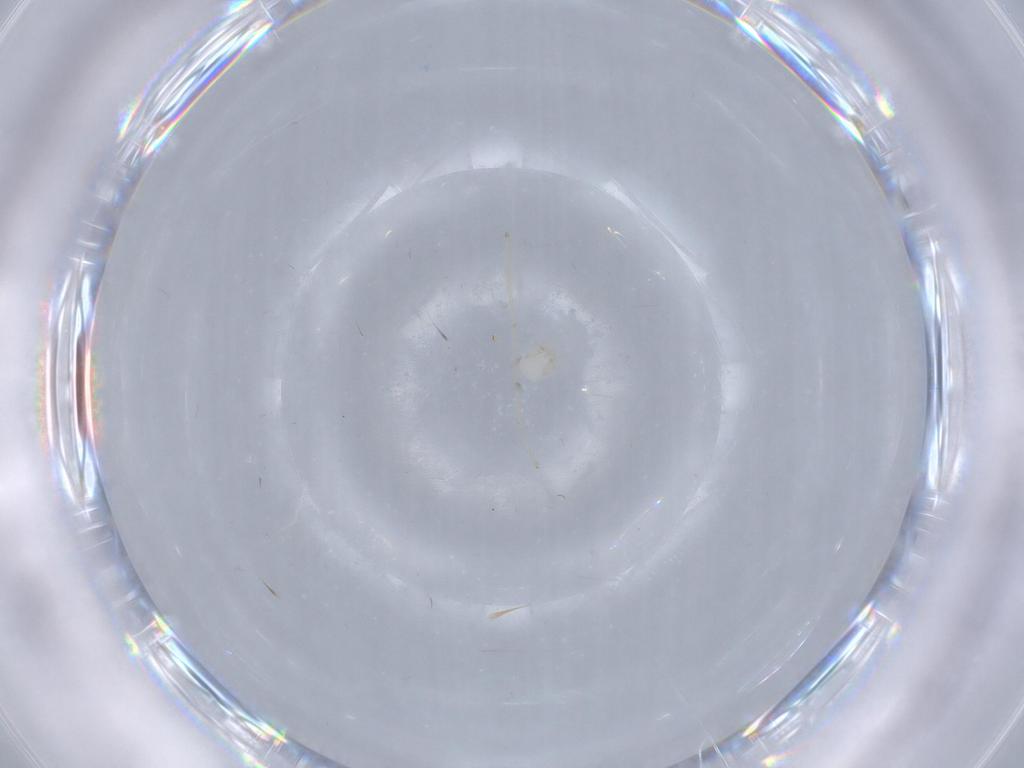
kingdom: Animalia
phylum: Arthropoda
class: Arachnida
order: Trombidiformes
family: Sperchontidae
